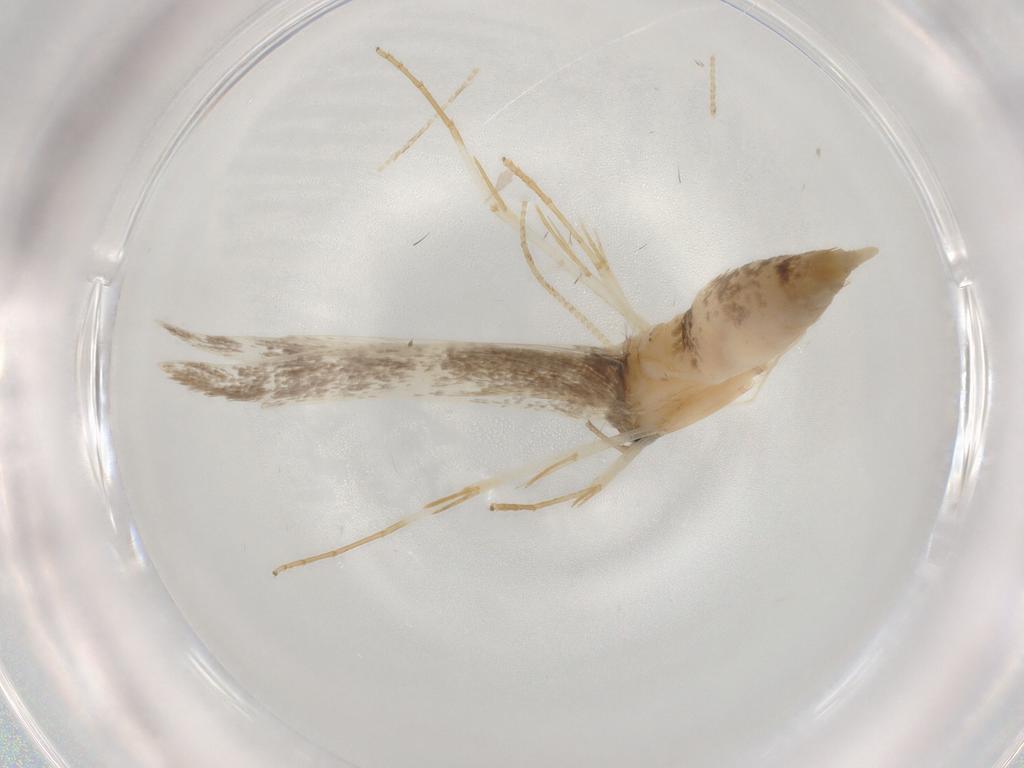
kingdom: Animalia
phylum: Arthropoda
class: Insecta
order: Lepidoptera
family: Lecithoceridae
